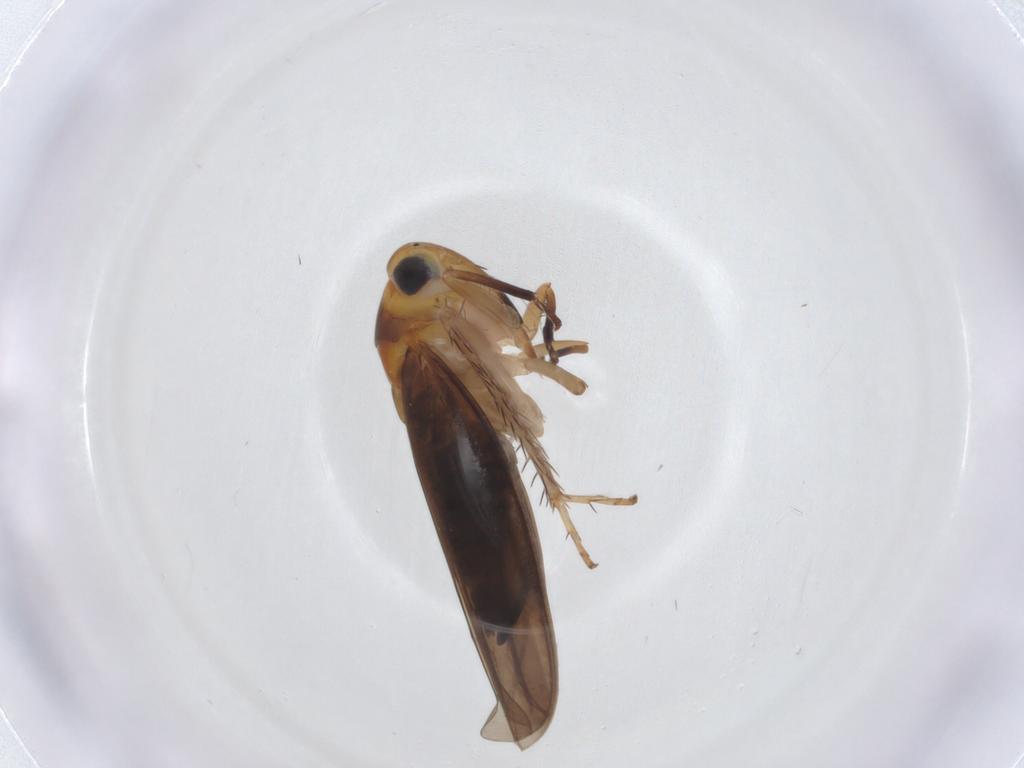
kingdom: Animalia
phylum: Arthropoda
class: Insecta
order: Hemiptera
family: Cicadellidae
